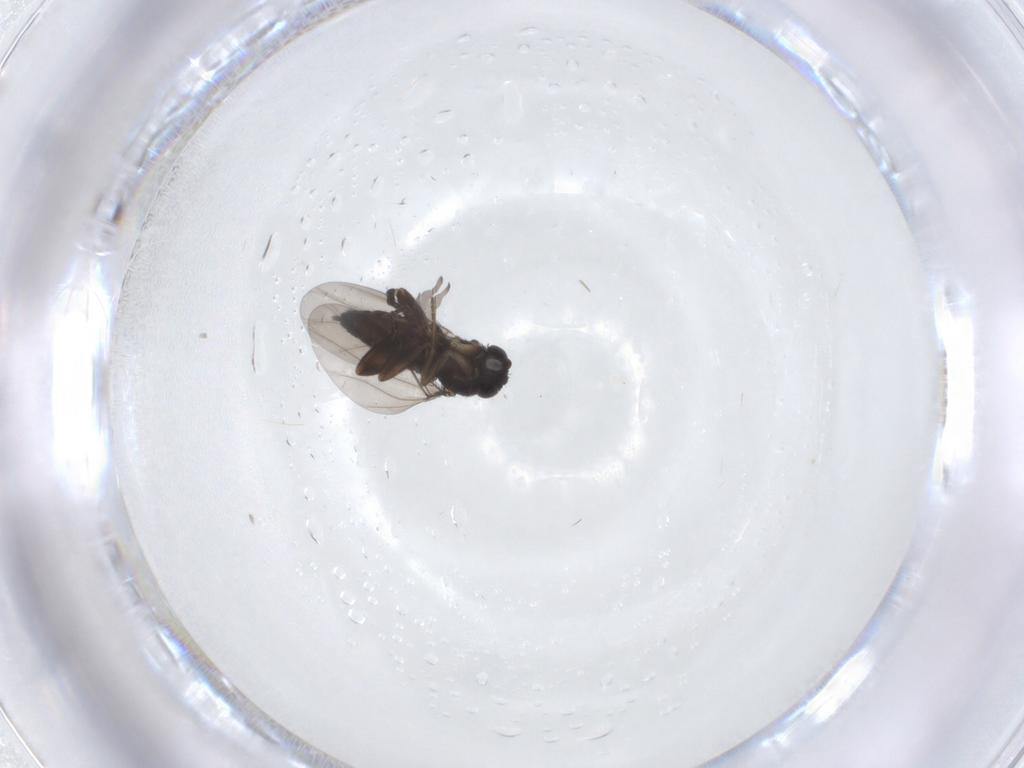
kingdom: Animalia
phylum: Arthropoda
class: Insecta
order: Diptera
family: Phoridae
